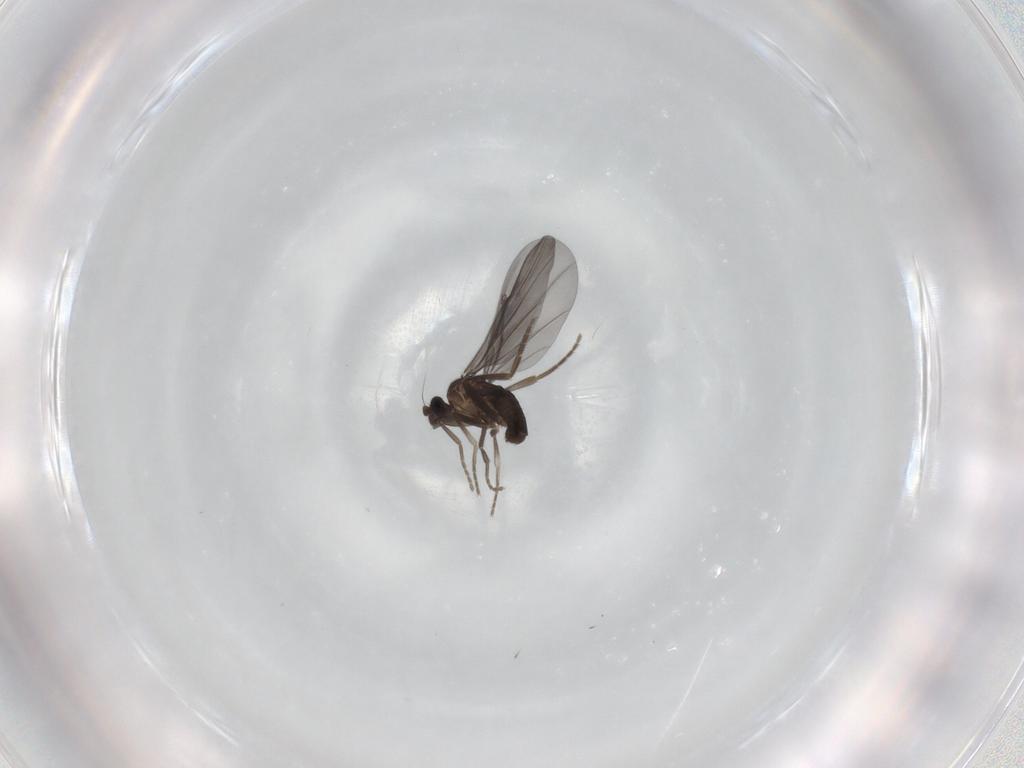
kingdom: Animalia
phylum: Arthropoda
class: Insecta
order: Diptera
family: Phoridae
